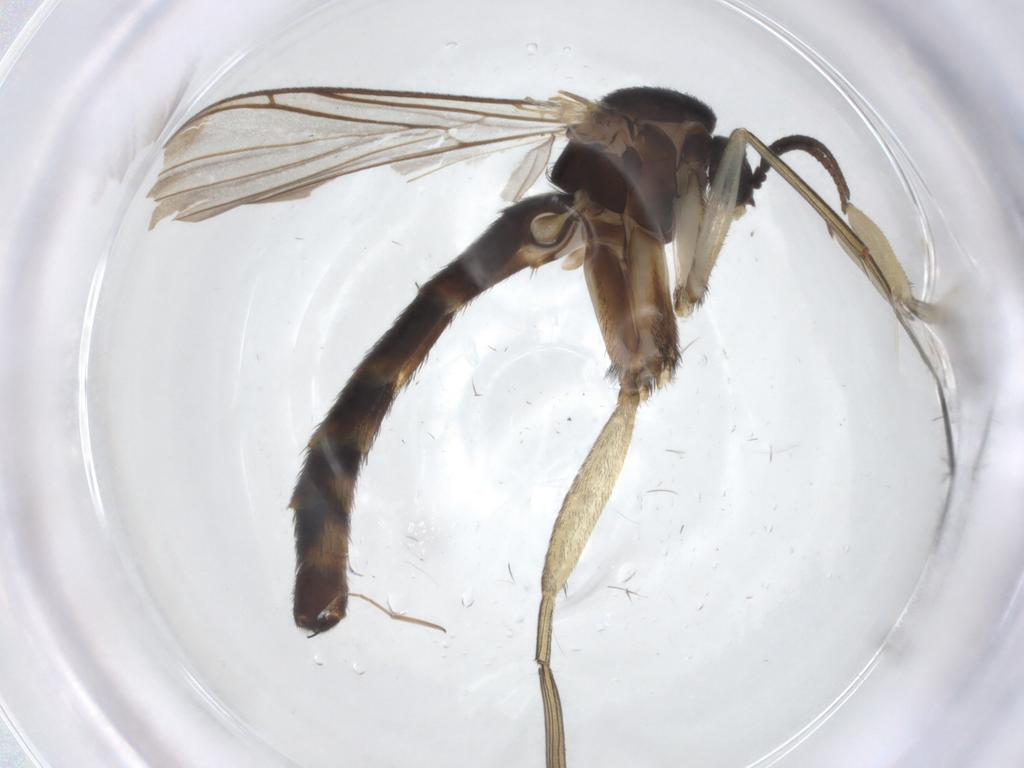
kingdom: Animalia
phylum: Arthropoda
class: Insecta
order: Diptera
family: Keroplatidae
